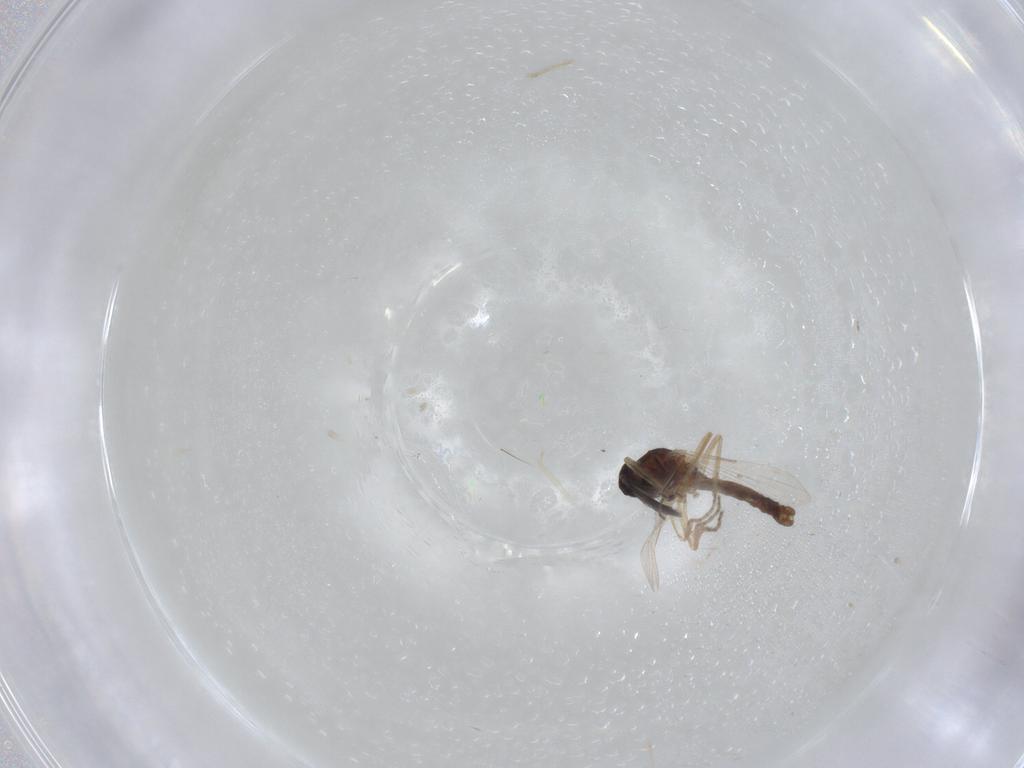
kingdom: Animalia
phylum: Arthropoda
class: Insecta
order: Diptera
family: Ceratopogonidae
